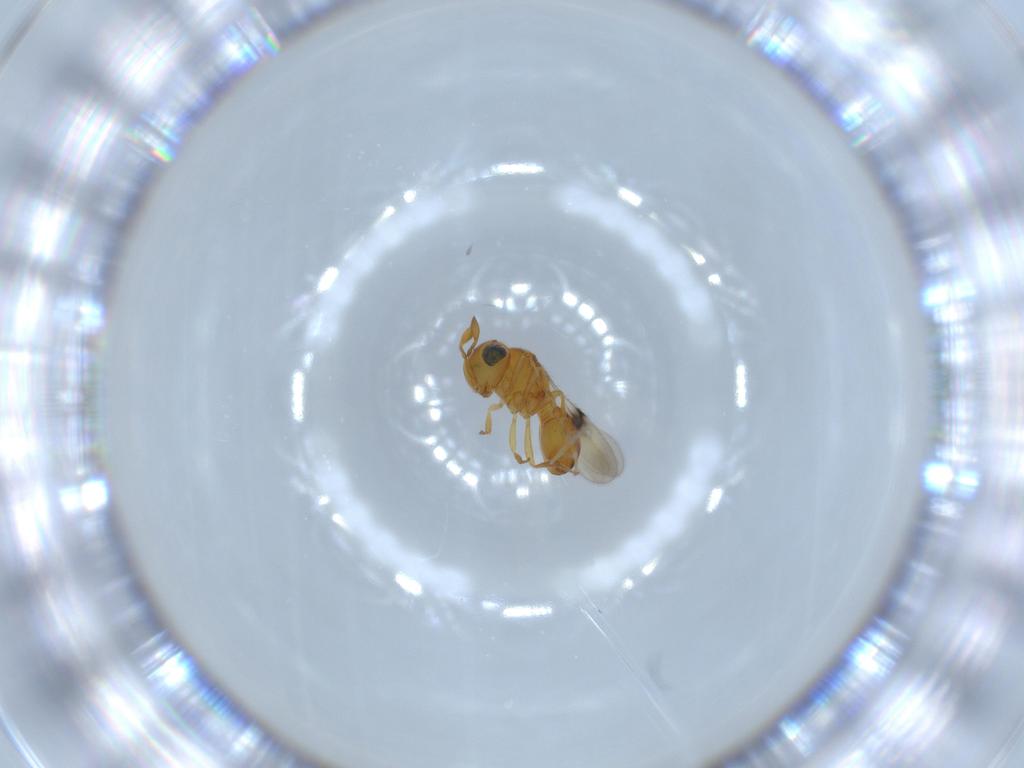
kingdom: Animalia
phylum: Arthropoda
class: Insecta
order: Hymenoptera
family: Scelionidae
